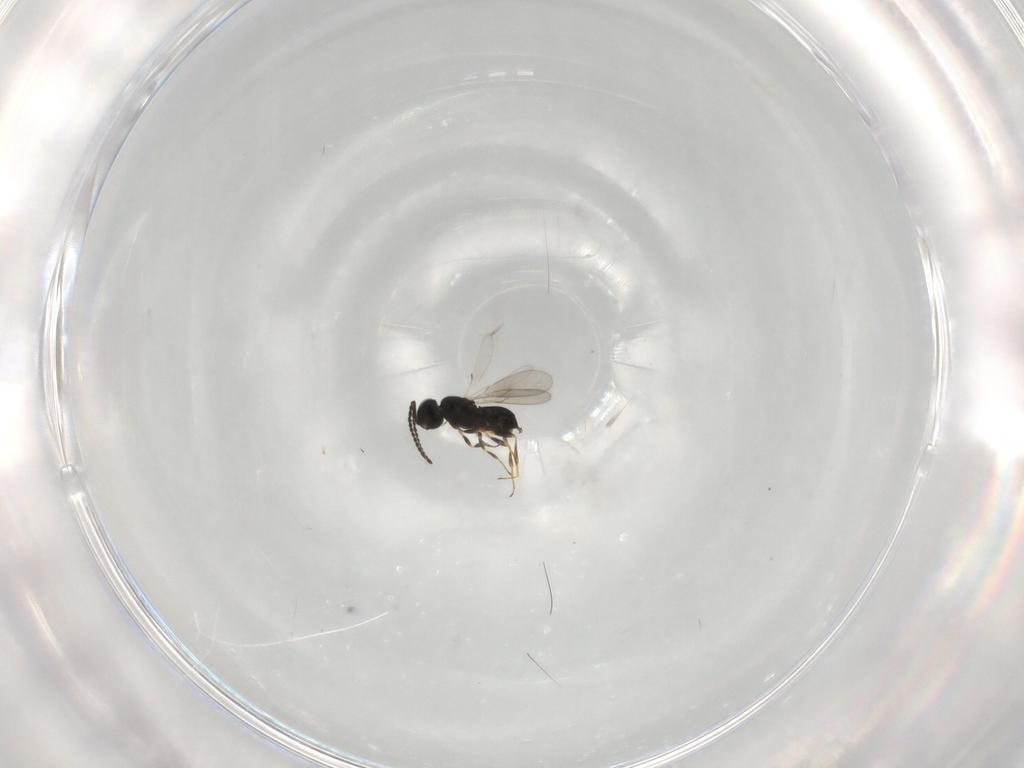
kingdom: Animalia
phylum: Arthropoda
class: Insecta
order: Hymenoptera
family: Scelionidae
